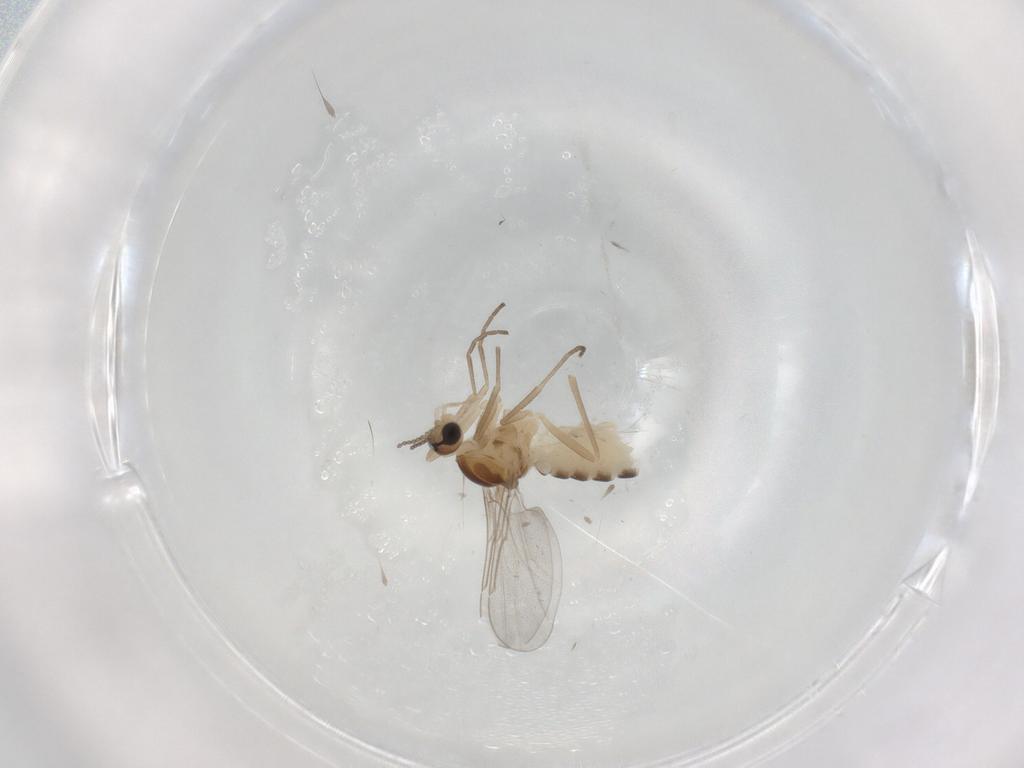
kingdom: Animalia
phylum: Arthropoda
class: Insecta
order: Diptera
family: Cecidomyiidae
